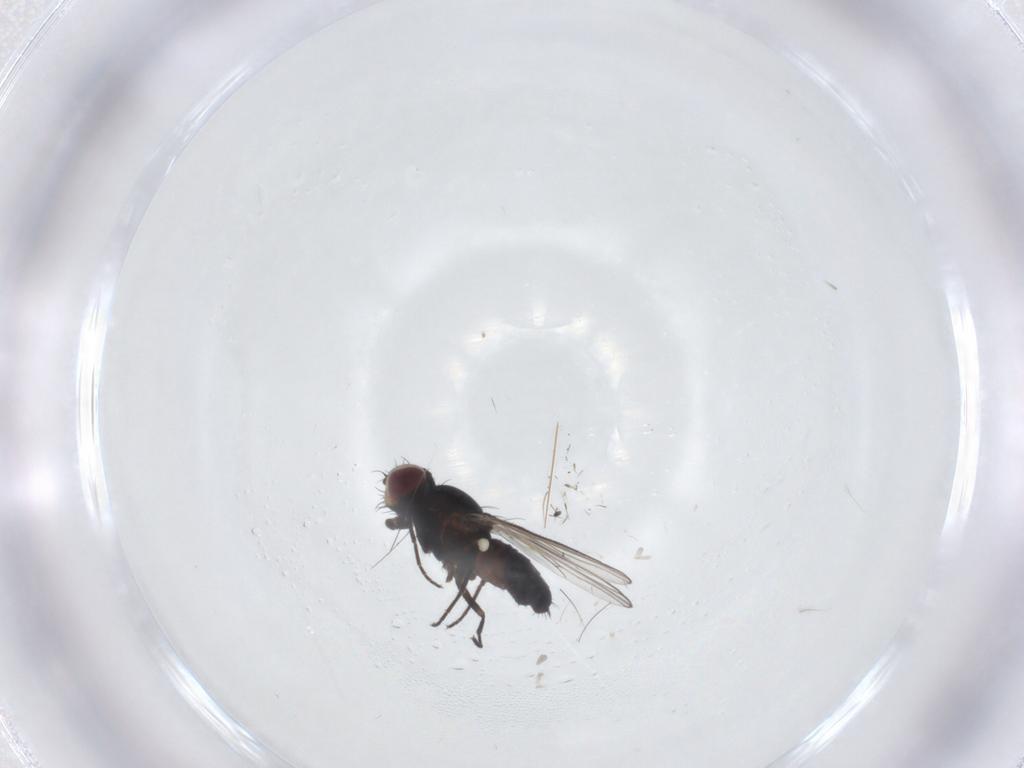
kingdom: Animalia
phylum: Arthropoda
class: Insecta
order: Diptera
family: Carnidae
